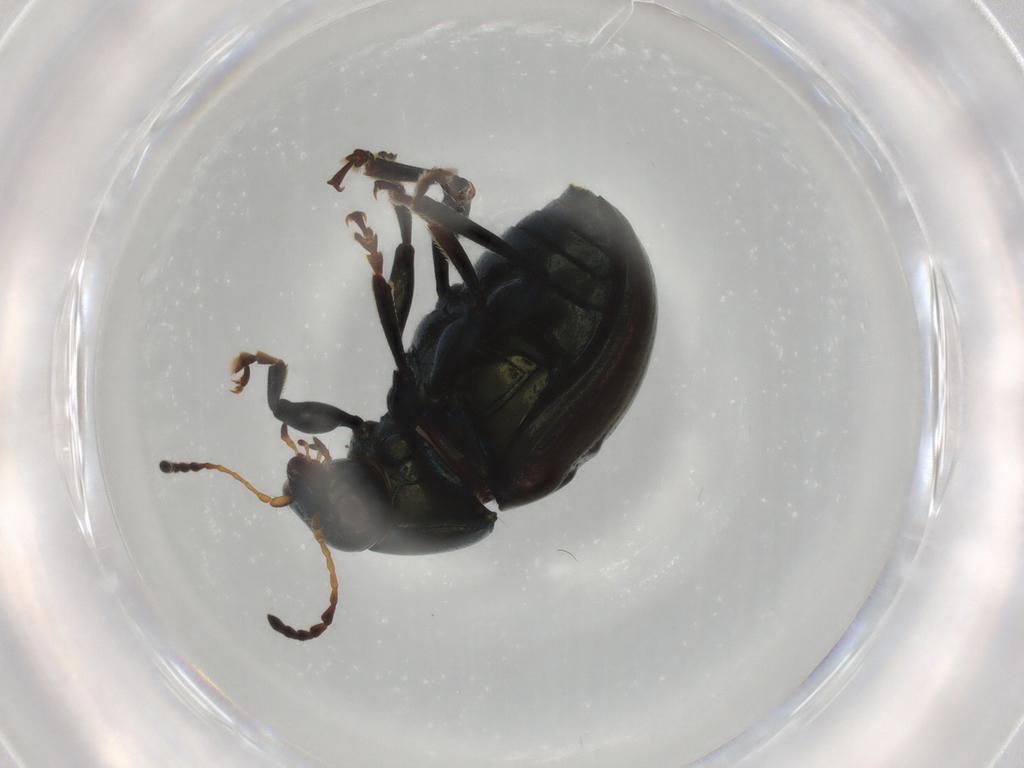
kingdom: Animalia
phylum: Arthropoda
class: Insecta
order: Coleoptera
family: Chrysomelidae
